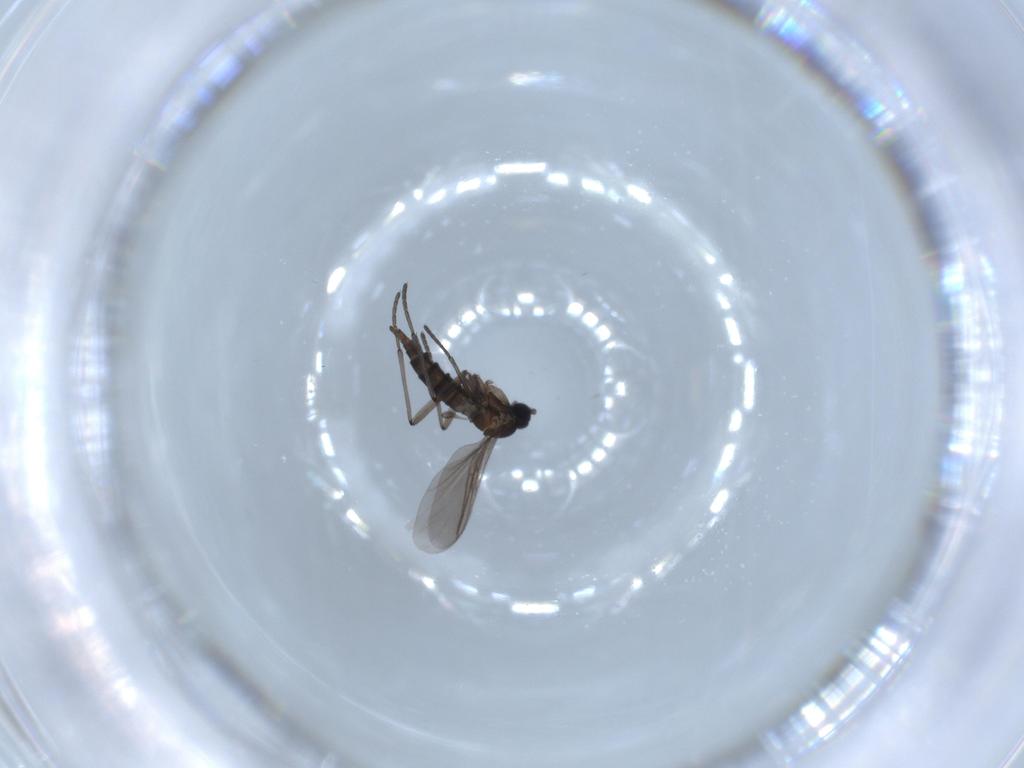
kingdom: Animalia
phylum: Arthropoda
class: Insecta
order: Diptera
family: Sciaridae
